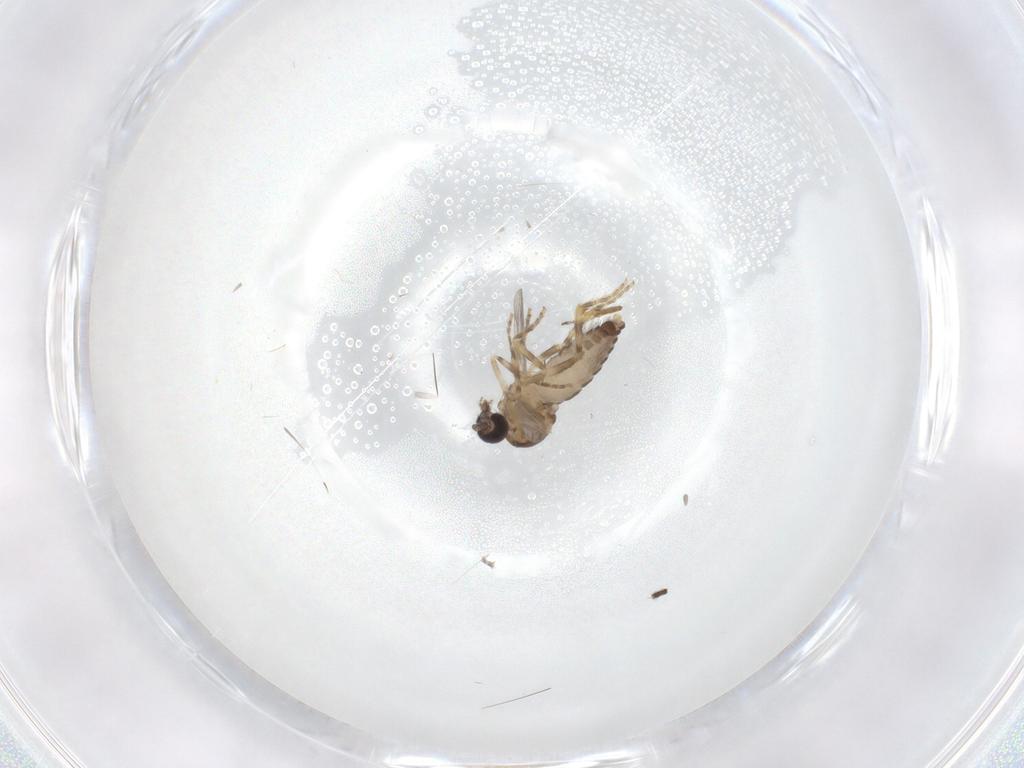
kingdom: Animalia
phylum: Arthropoda
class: Insecta
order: Diptera
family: Ceratopogonidae
